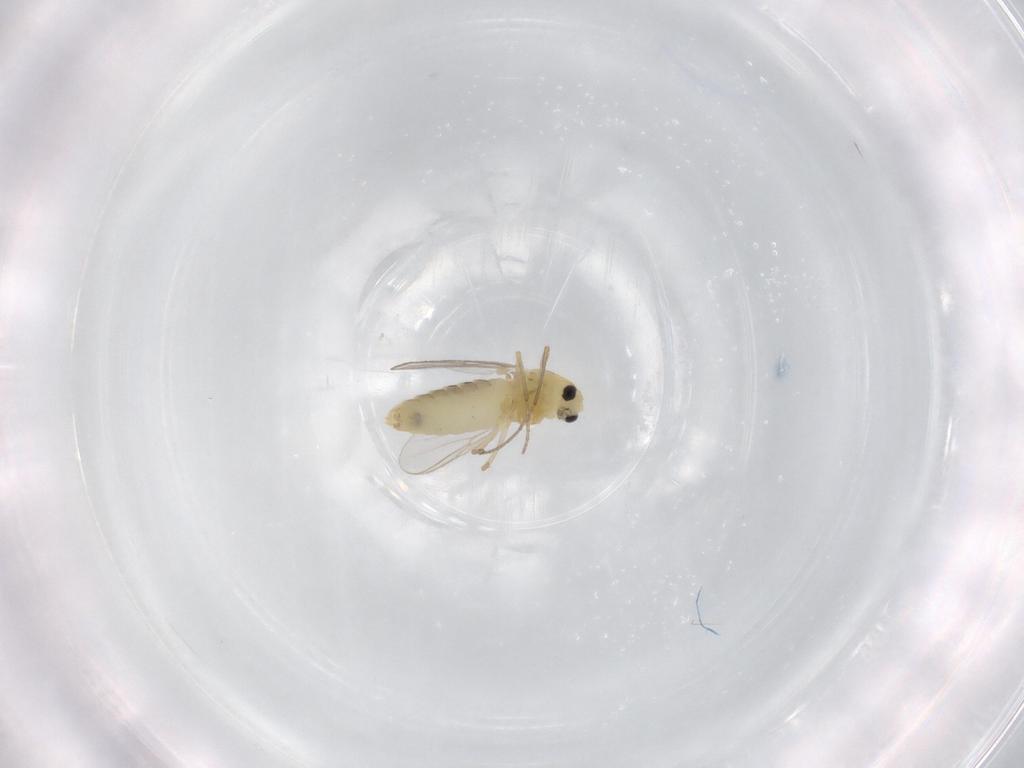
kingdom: Animalia
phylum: Arthropoda
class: Insecta
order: Diptera
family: Chironomidae
